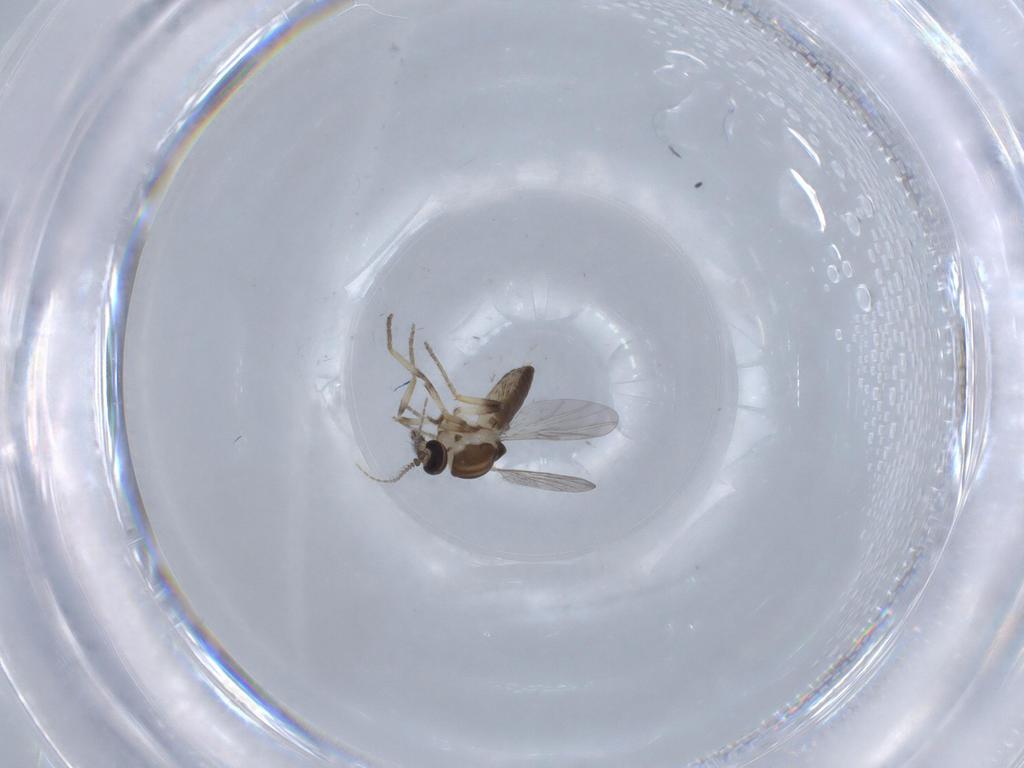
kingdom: Animalia
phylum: Arthropoda
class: Insecta
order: Diptera
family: Ceratopogonidae
